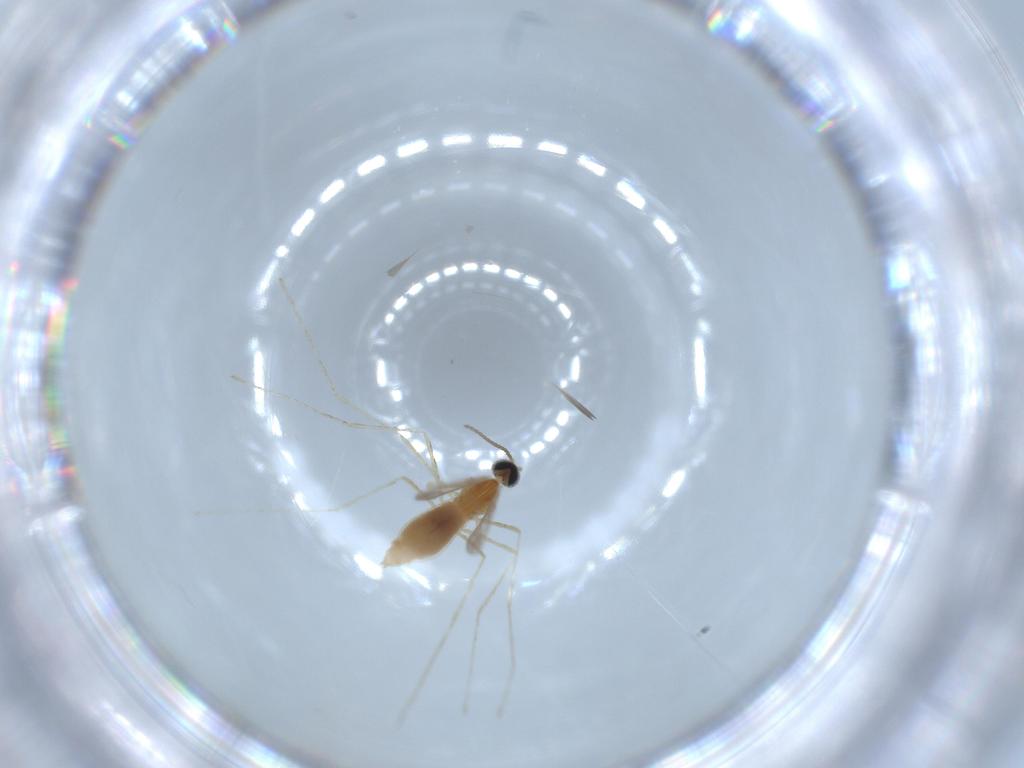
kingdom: Animalia
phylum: Arthropoda
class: Insecta
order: Diptera
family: Cecidomyiidae
